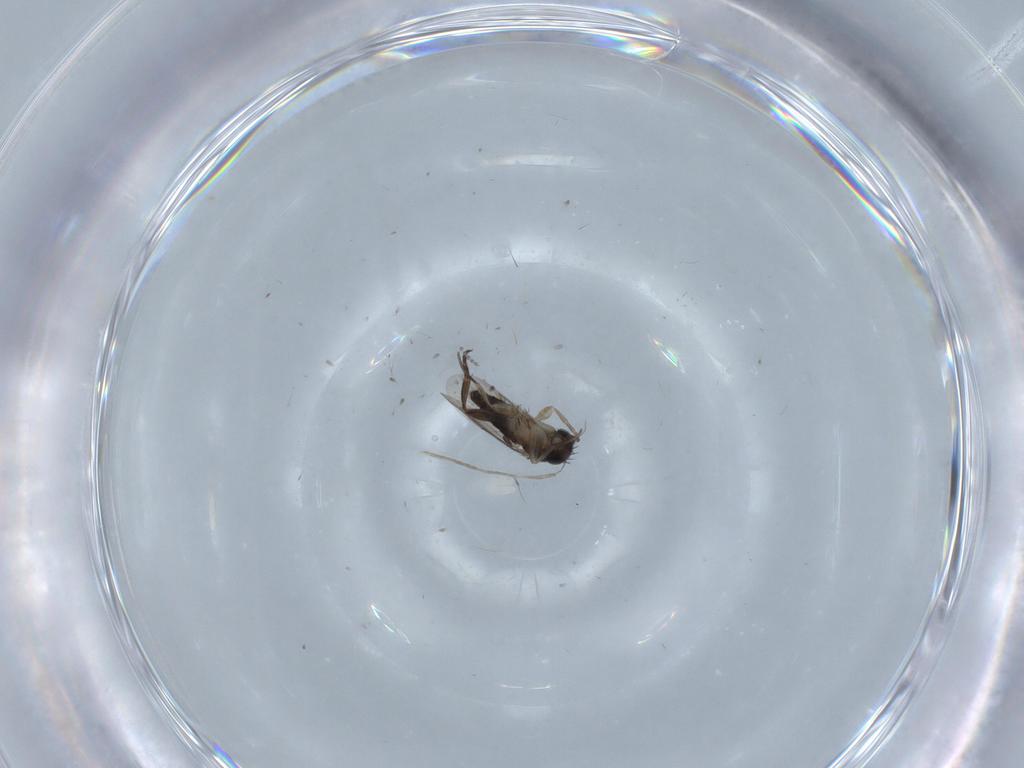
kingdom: Animalia
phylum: Arthropoda
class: Insecta
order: Diptera
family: Cecidomyiidae
